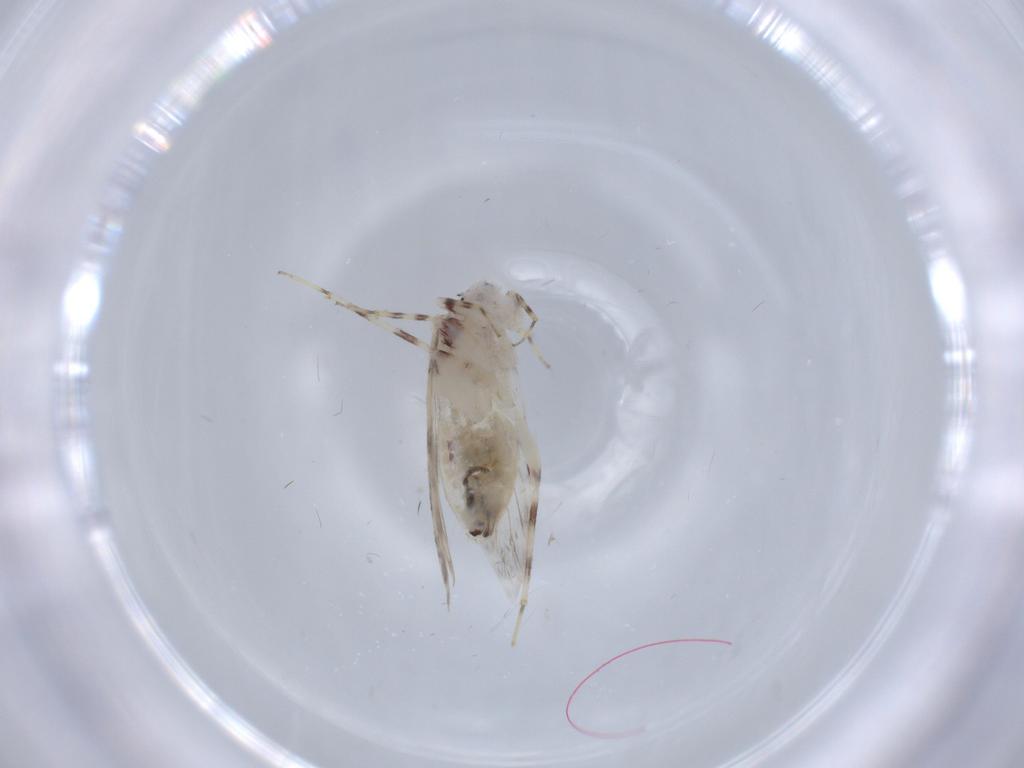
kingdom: Animalia
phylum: Arthropoda
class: Insecta
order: Psocodea
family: Lepidopsocidae
